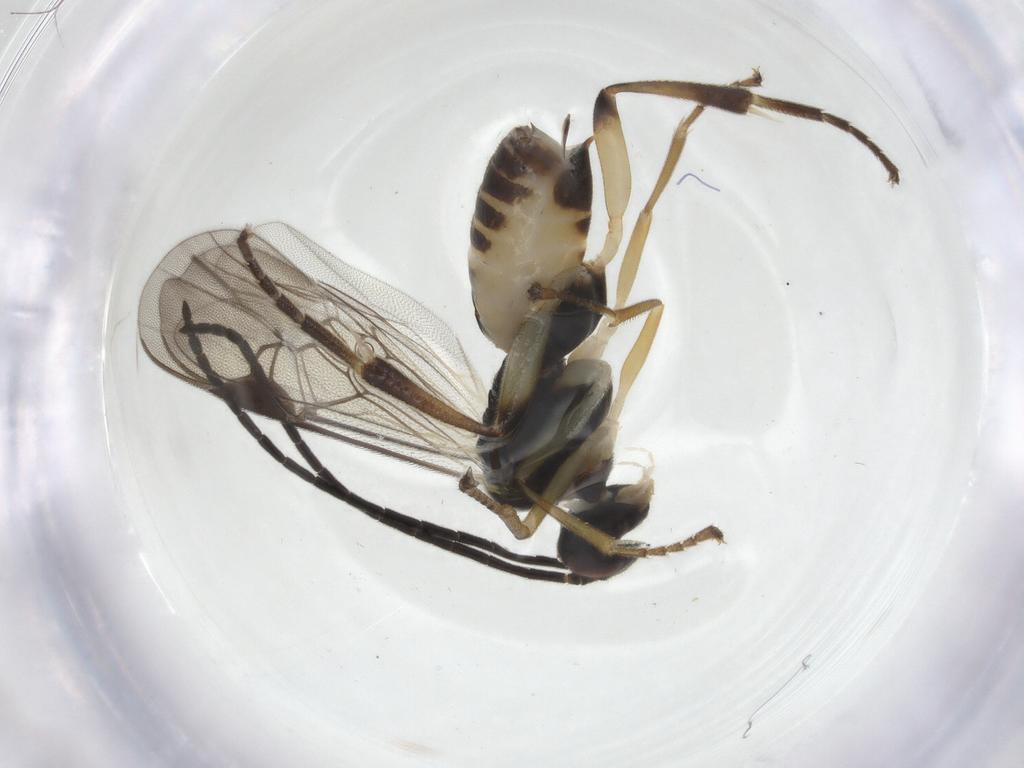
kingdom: Animalia
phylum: Arthropoda
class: Insecta
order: Hymenoptera
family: Braconidae
